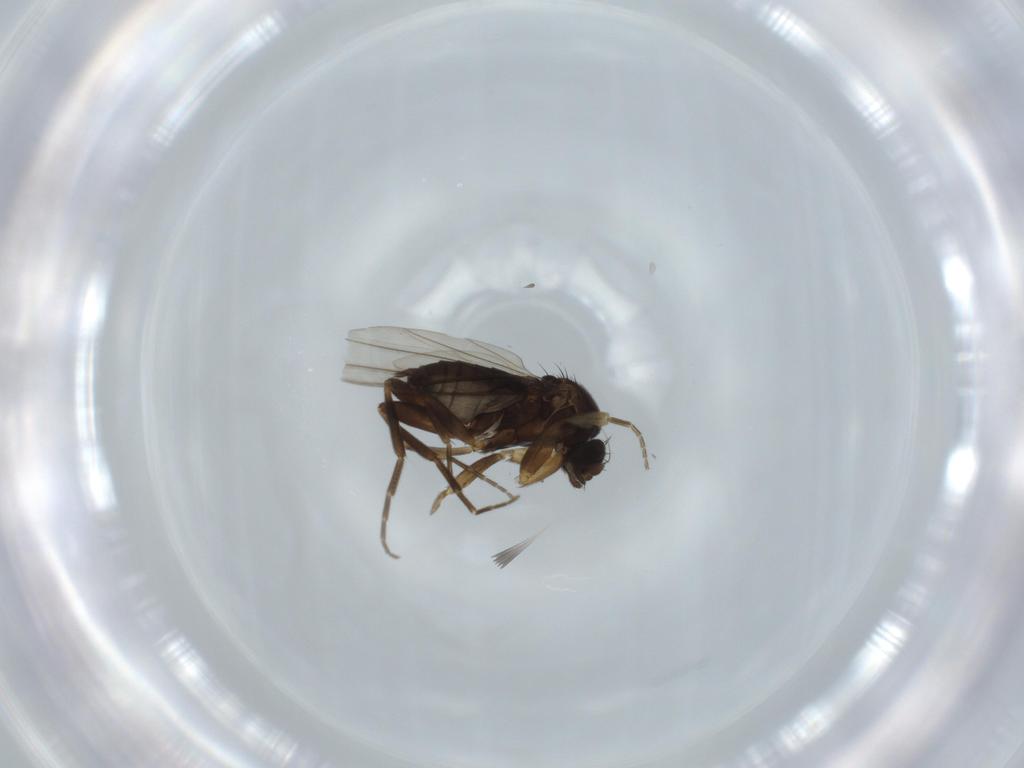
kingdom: Animalia
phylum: Arthropoda
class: Insecta
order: Diptera
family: Phoridae
